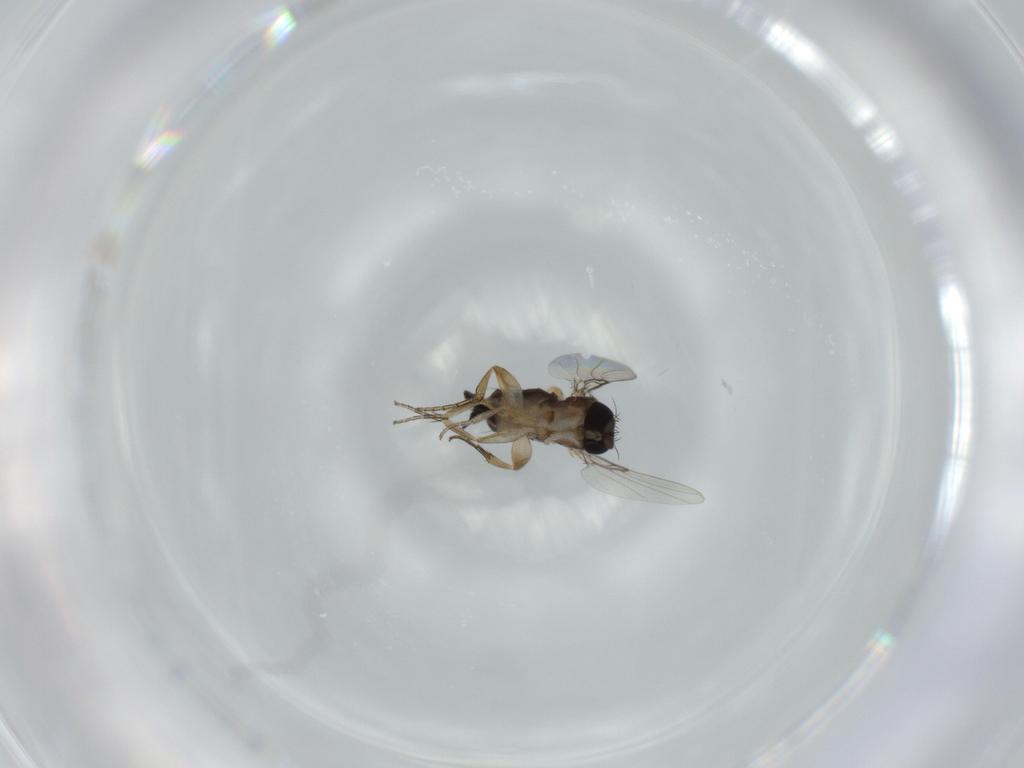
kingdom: Animalia
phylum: Arthropoda
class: Insecta
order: Diptera
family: Phoridae
